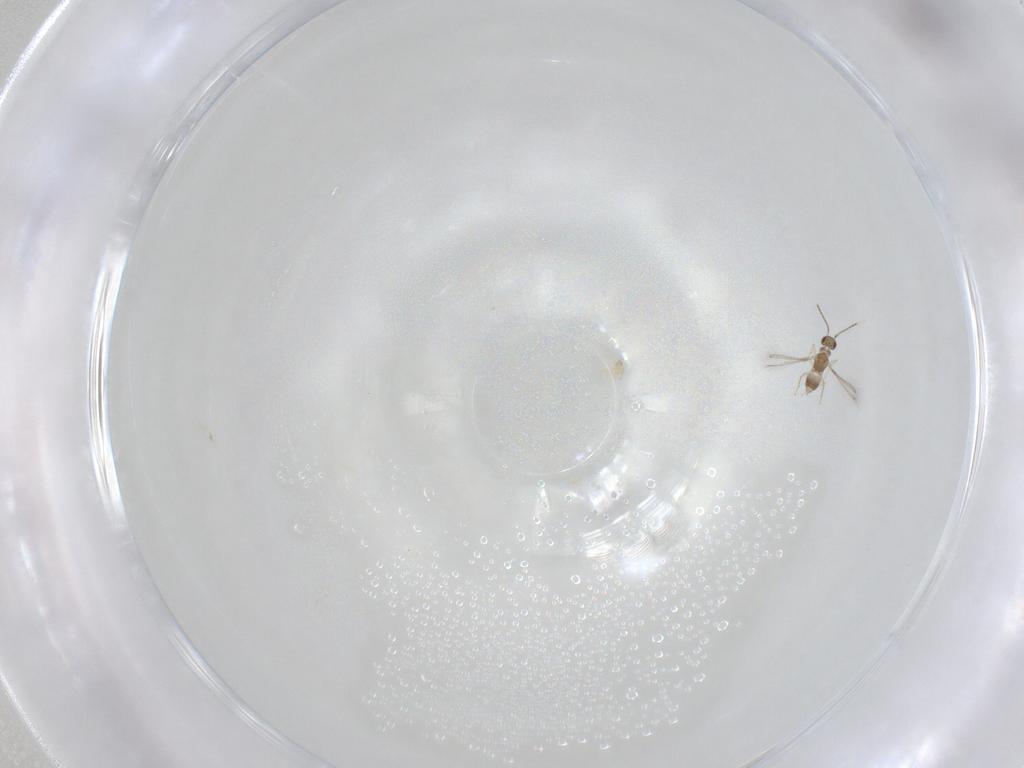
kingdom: Animalia
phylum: Arthropoda
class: Insecta
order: Hymenoptera
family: Mymaridae
